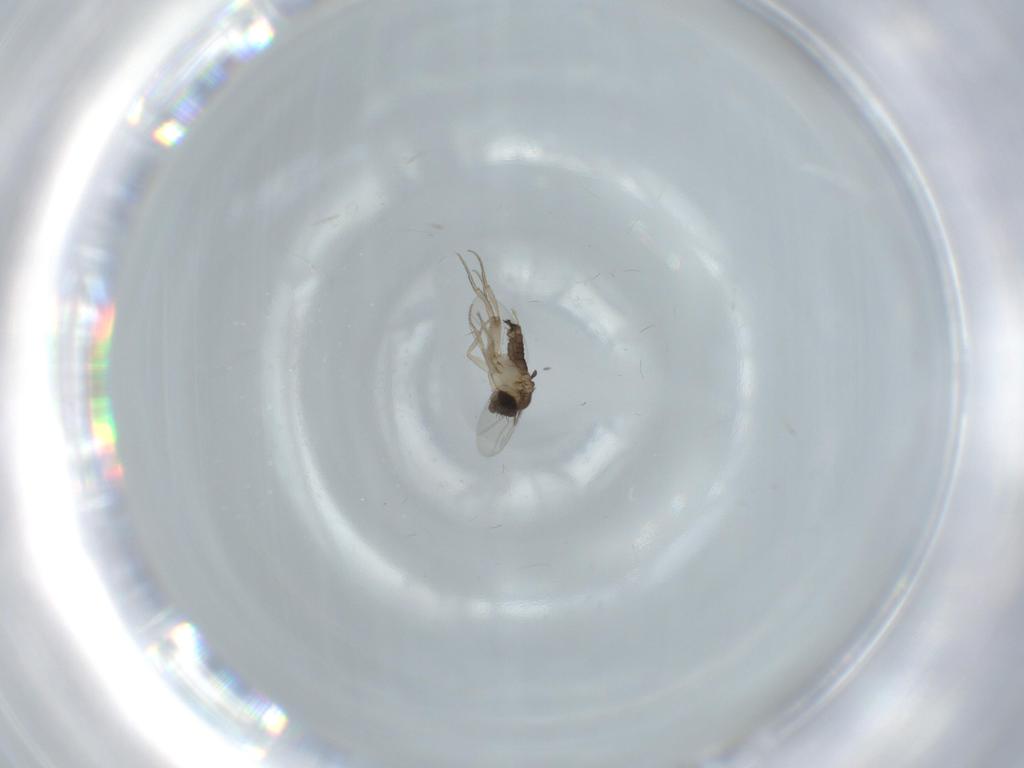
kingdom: Animalia
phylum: Arthropoda
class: Insecta
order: Diptera
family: Phoridae
